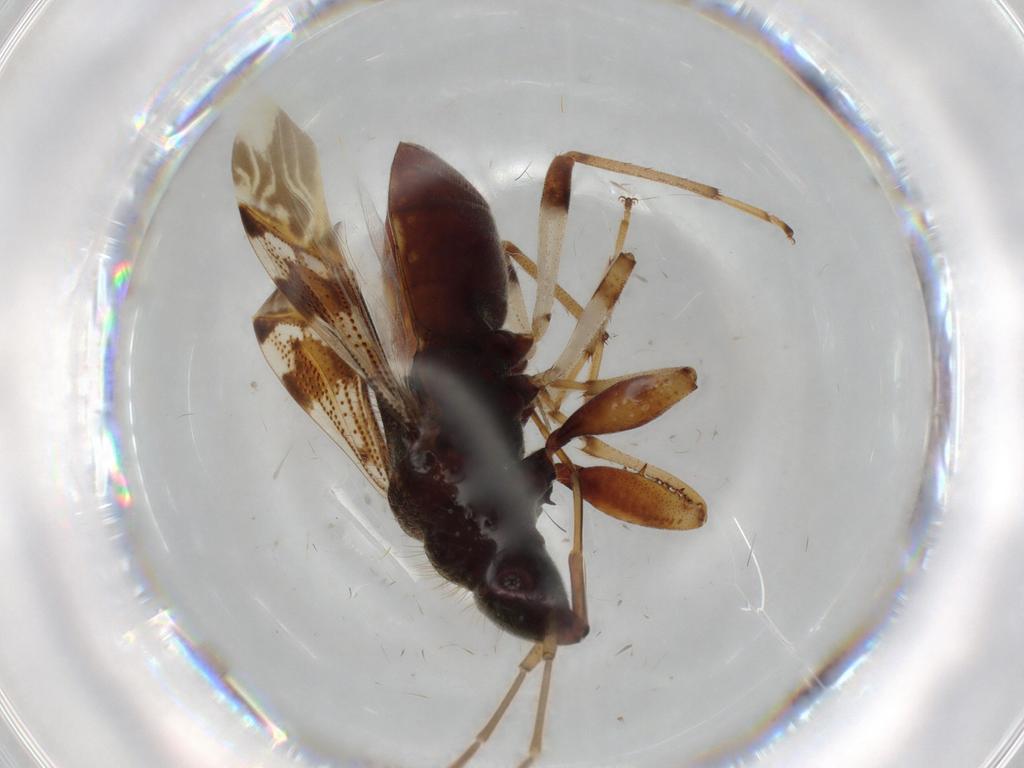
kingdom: Animalia
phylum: Arthropoda
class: Insecta
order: Hemiptera
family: Rhyparochromidae
